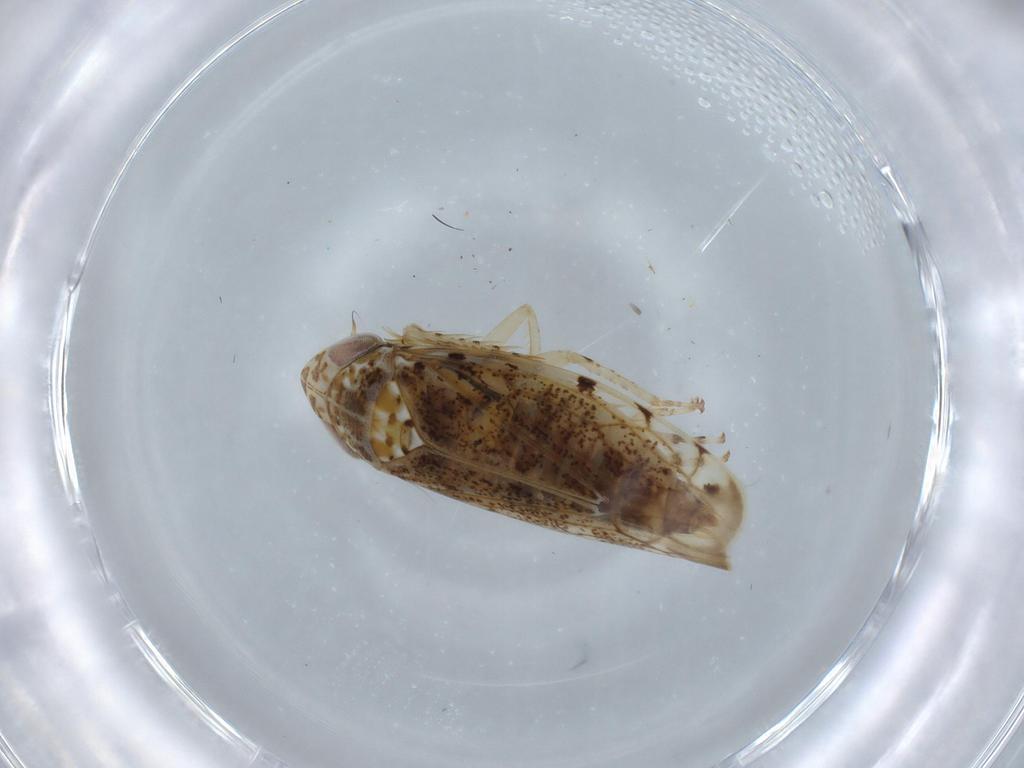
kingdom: Animalia
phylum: Arthropoda
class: Insecta
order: Hemiptera
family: Cicadellidae
